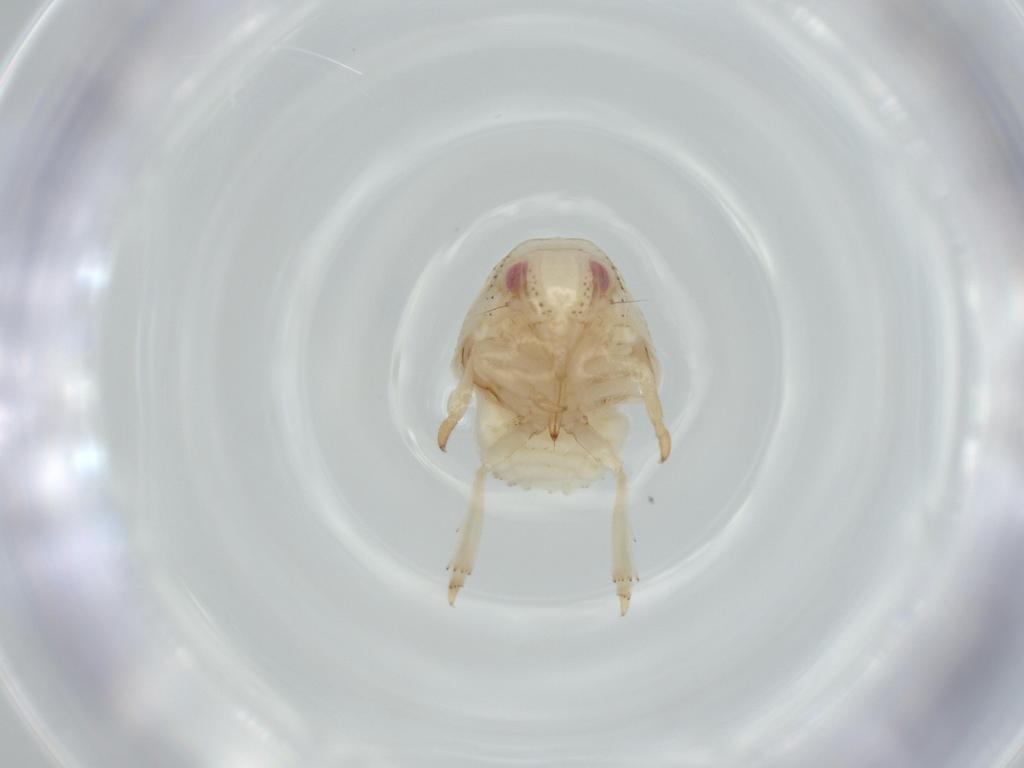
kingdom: Animalia
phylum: Arthropoda
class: Insecta
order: Hemiptera
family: Acanaloniidae
